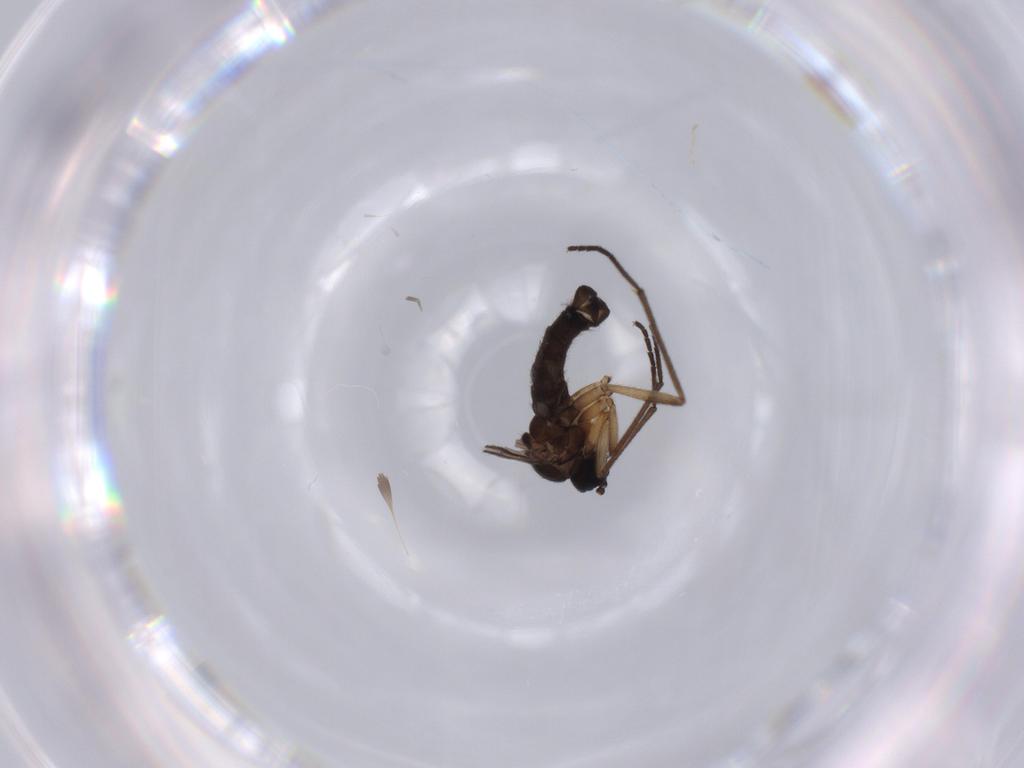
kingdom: Animalia
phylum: Arthropoda
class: Insecta
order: Diptera
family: Sciaridae
